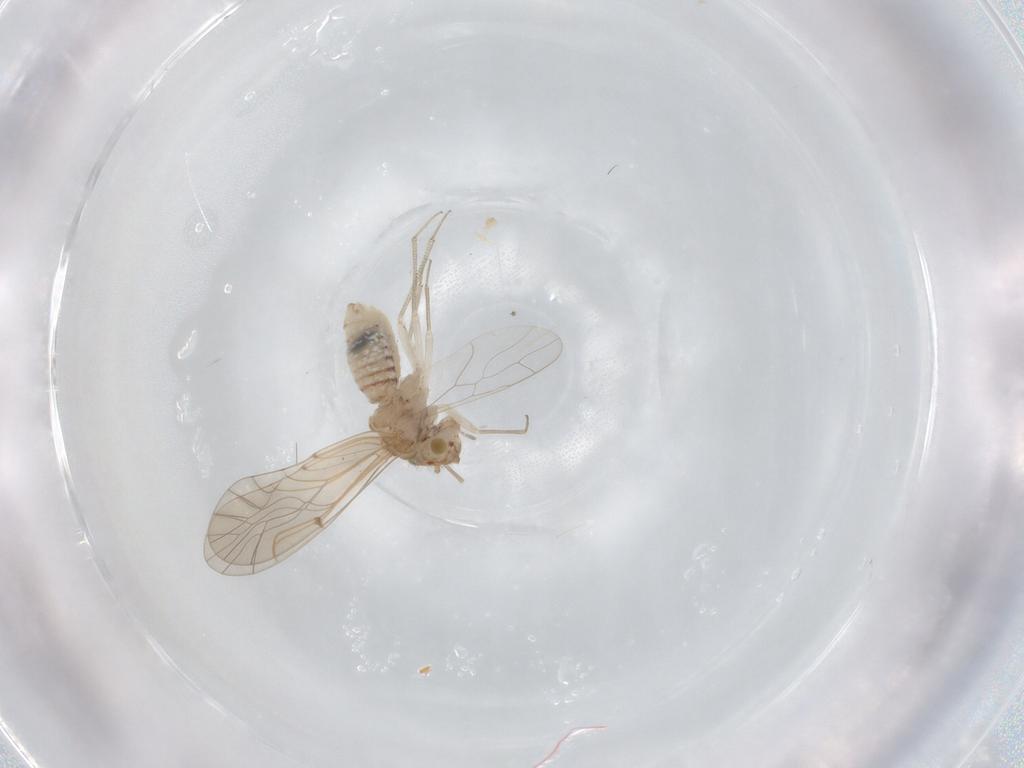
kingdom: Animalia
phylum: Arthropoda
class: Insecta
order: Psocodea
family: Lachesillidae
